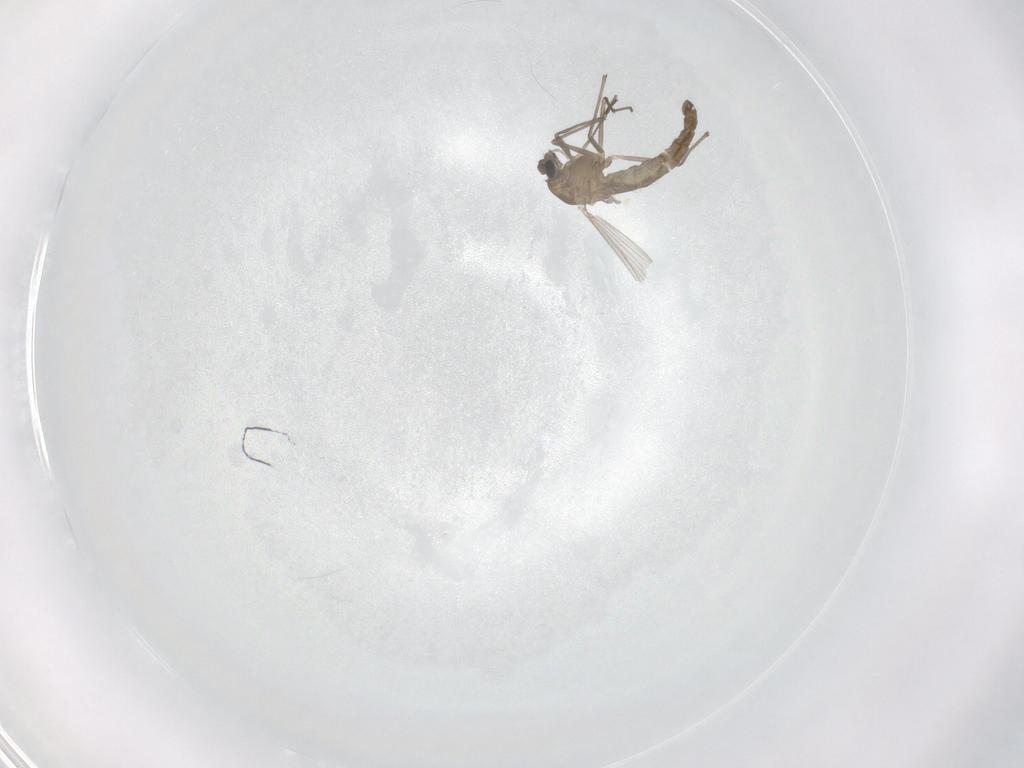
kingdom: Animalia
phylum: Arthropoda
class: Insecta
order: Diptera
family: Chironomidae
